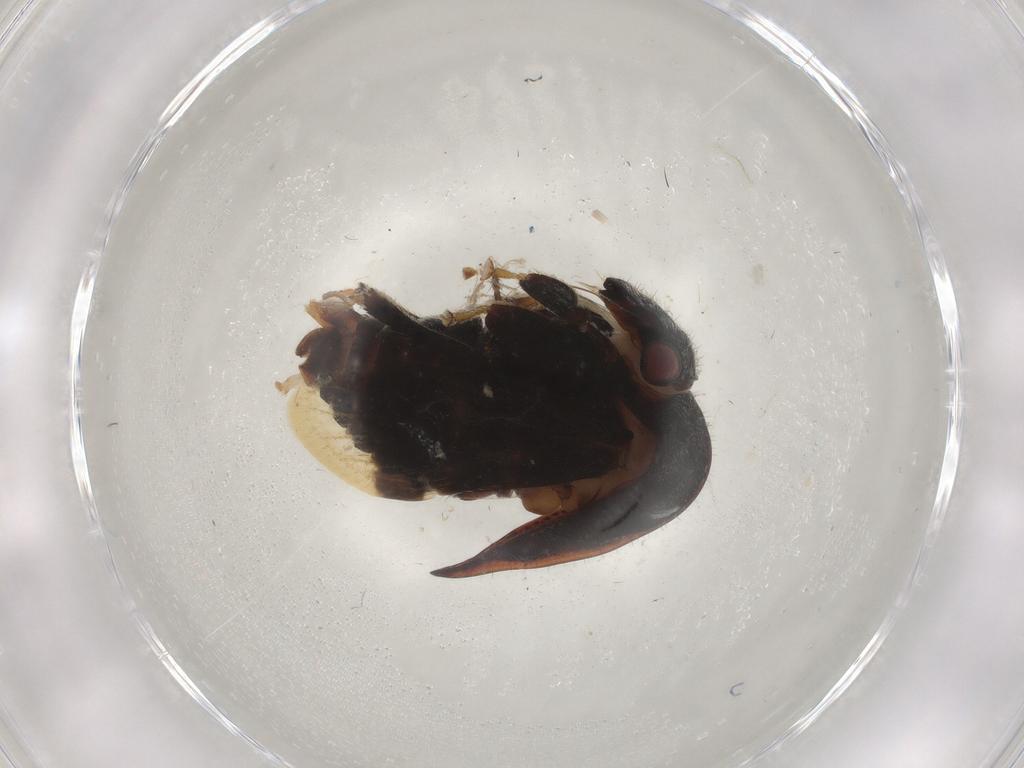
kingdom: Animalia
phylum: Arthropoda
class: Insecta
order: Hemiptera
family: Membracidae
